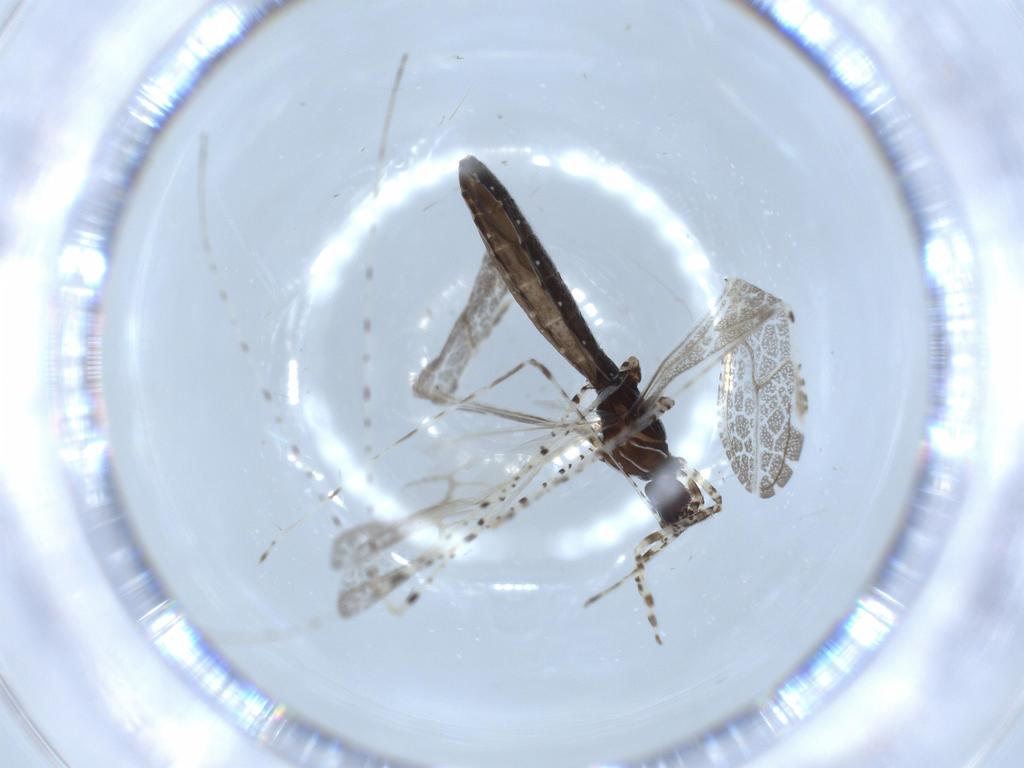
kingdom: Animalia
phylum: Arthropoda
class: Insecta
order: Hemiptera
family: Reduviidae
